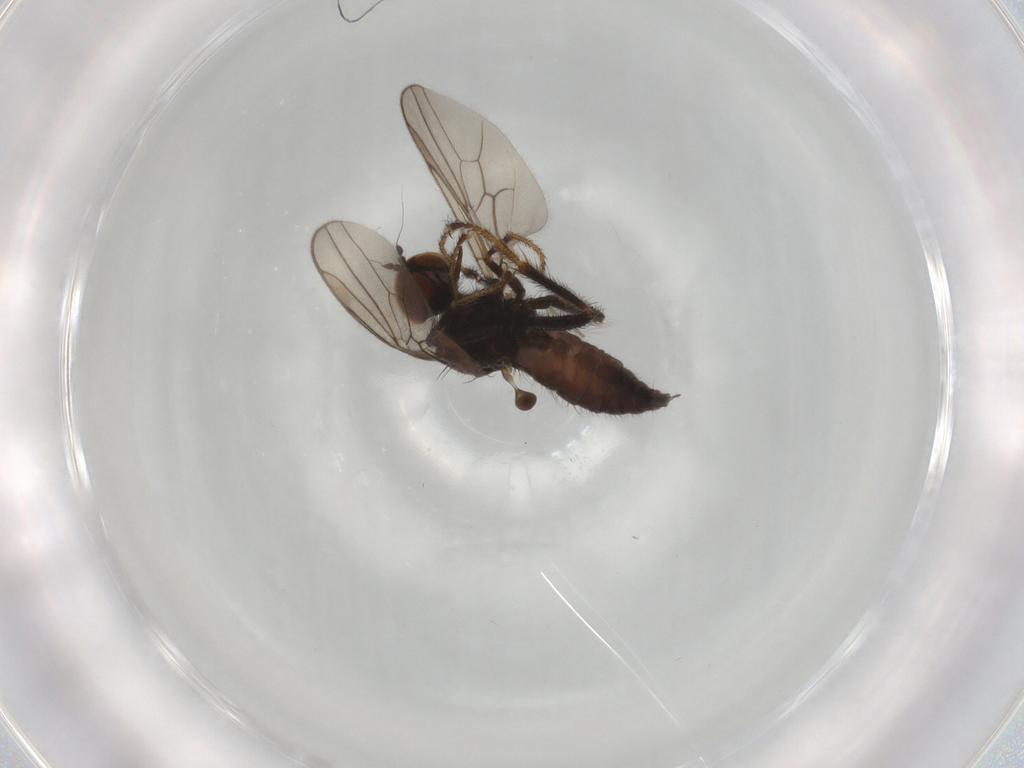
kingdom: Animalia
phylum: Arthropoda
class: Insecta
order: Diptera
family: Hybotidae
